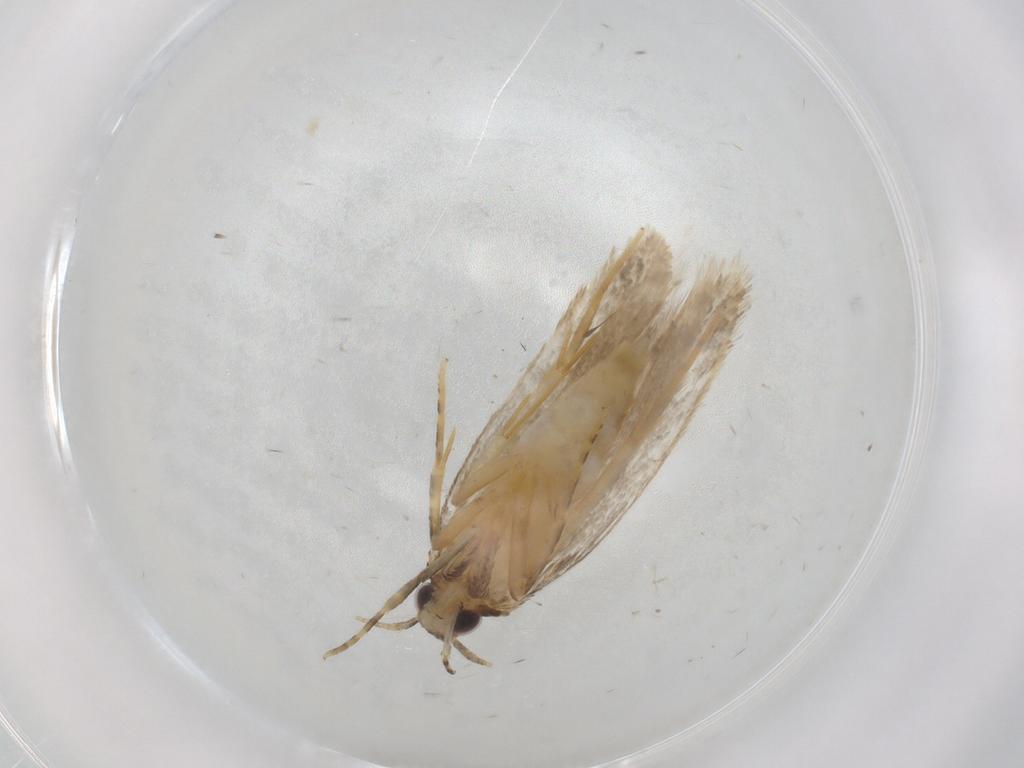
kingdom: Animalia
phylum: Arthropoda
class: Insecta
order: Lepidoptera
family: Autostichidae
